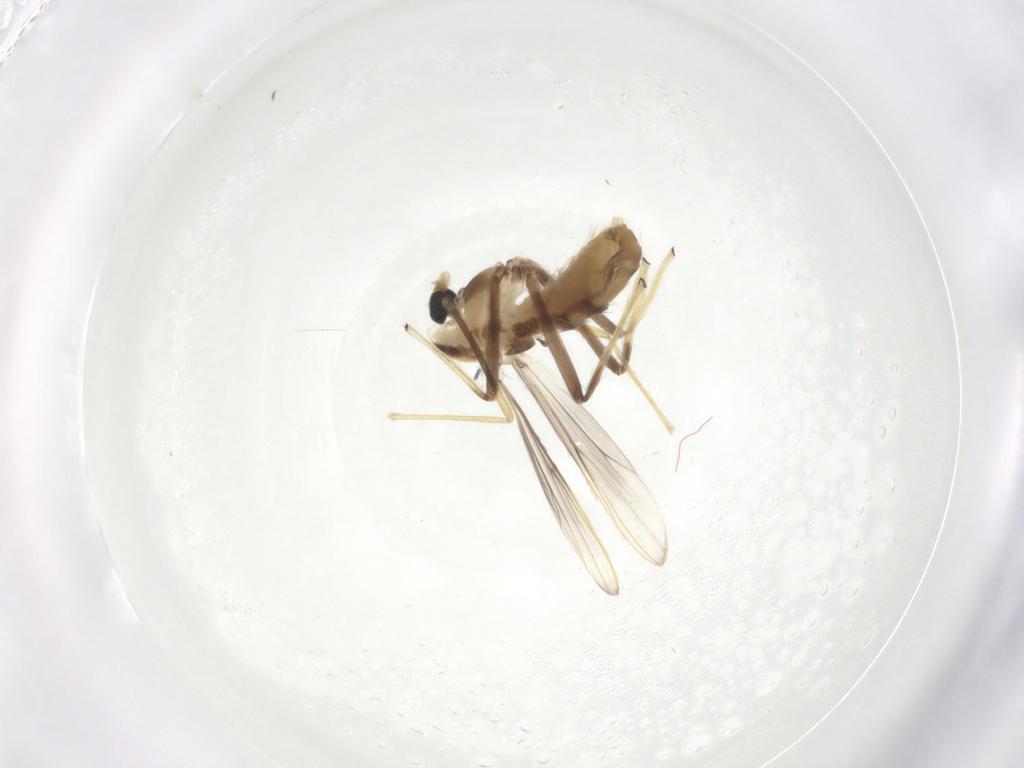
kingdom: Animalia
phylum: Arthropoda
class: Insecta
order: Diptera
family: Chironomidae
